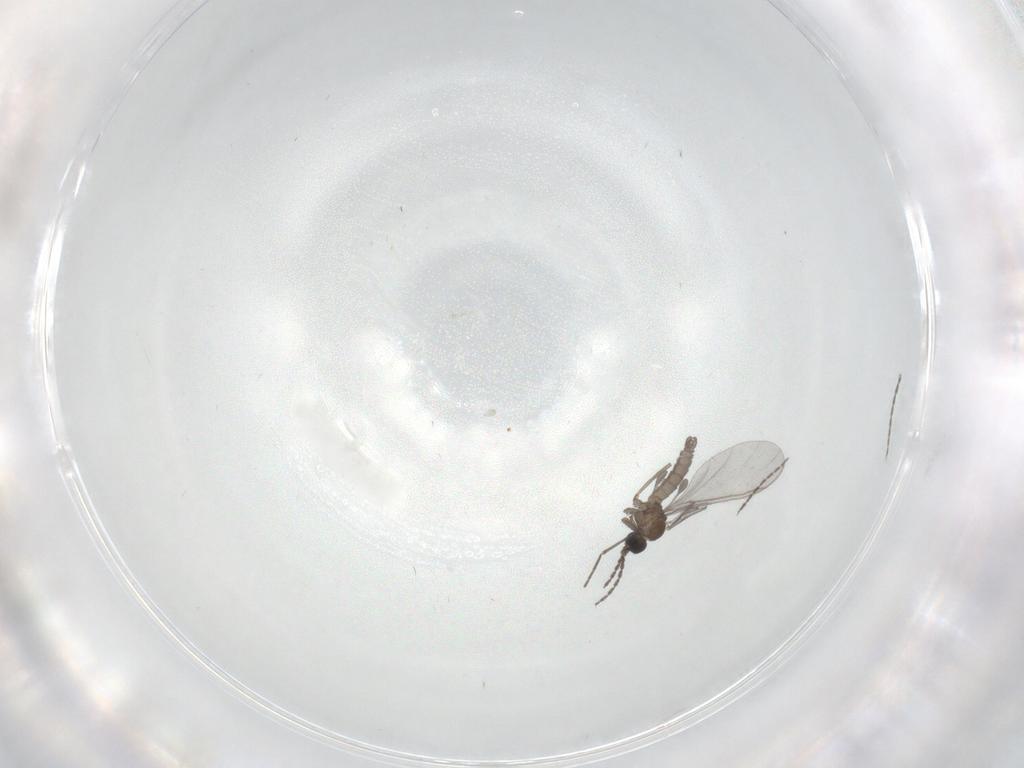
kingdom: Animalia
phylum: Arthropoda
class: Insecta
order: Diptera
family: Sciaridae
